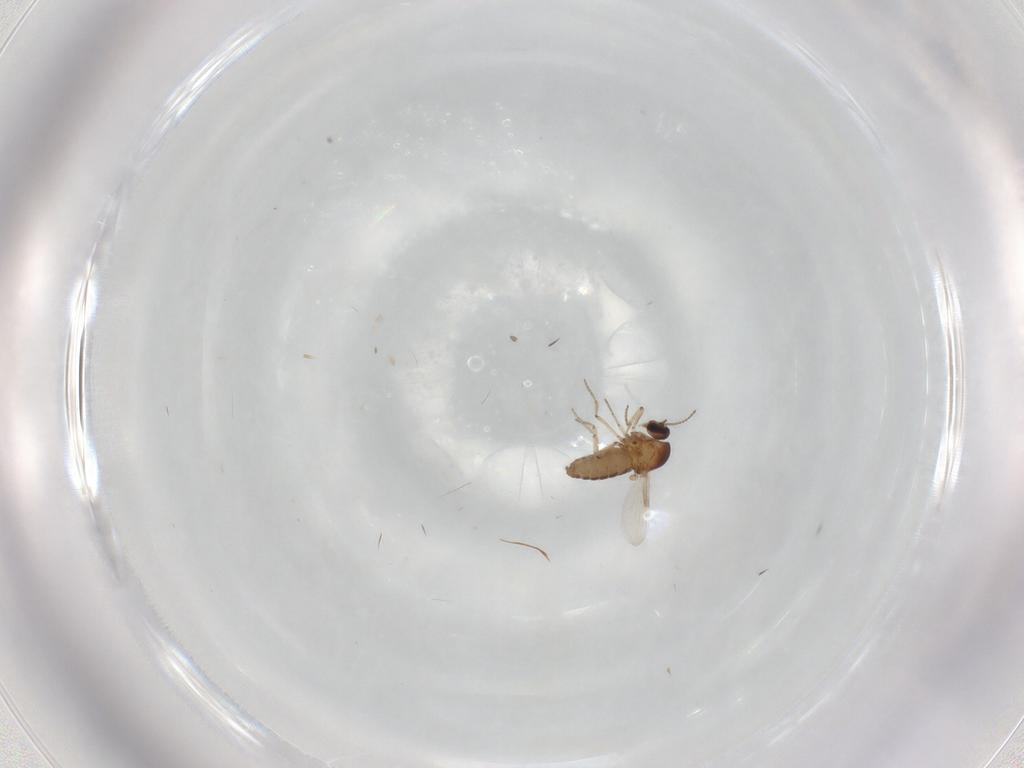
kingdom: Animalia
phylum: Arthropoda
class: Insecta
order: Diptera
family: Ceratopogonidae
